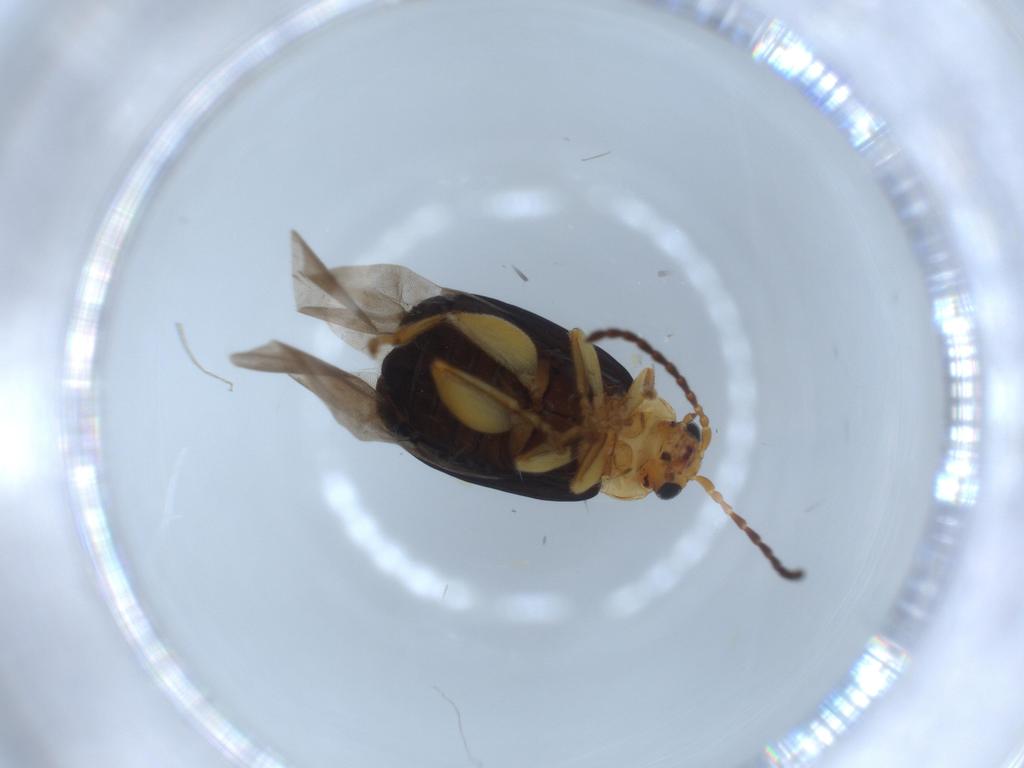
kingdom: Animalia
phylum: Arthropoda
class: Insecta
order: Coleoptera
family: Chrysomelidae
